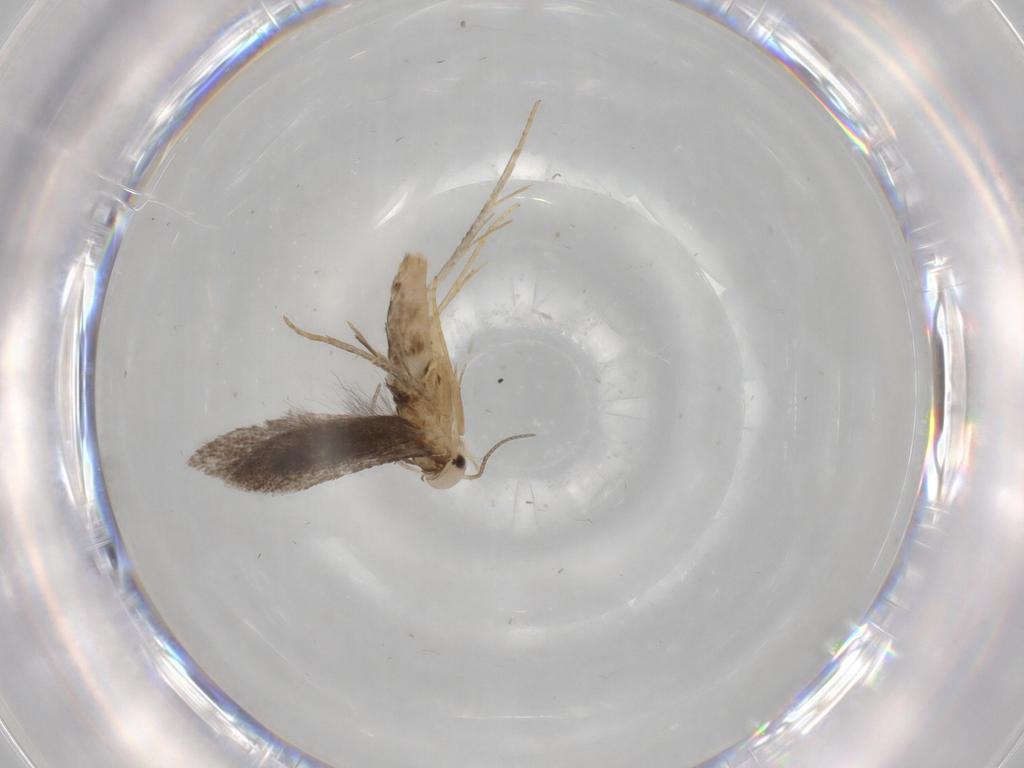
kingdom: Animalia
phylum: Arthropoda
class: Insecta
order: Lepidoptera
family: Schreckensteiniidae
